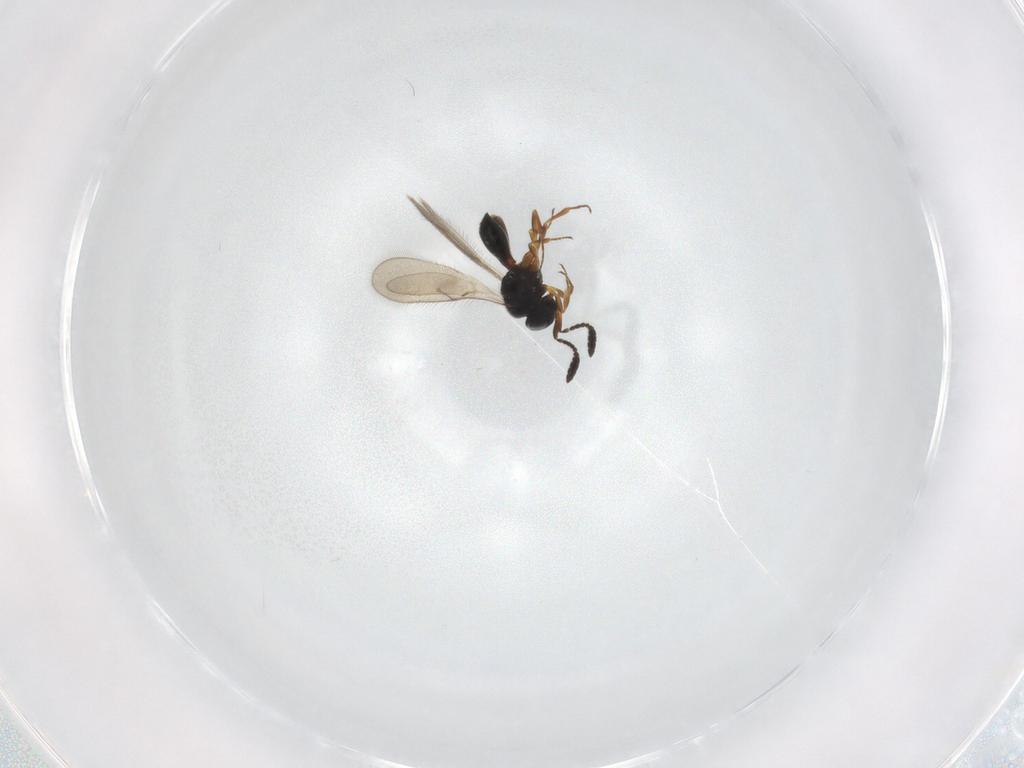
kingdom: Animalia
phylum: Arthropoda
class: Insecta
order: Hymenoptera
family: Scelionidae
